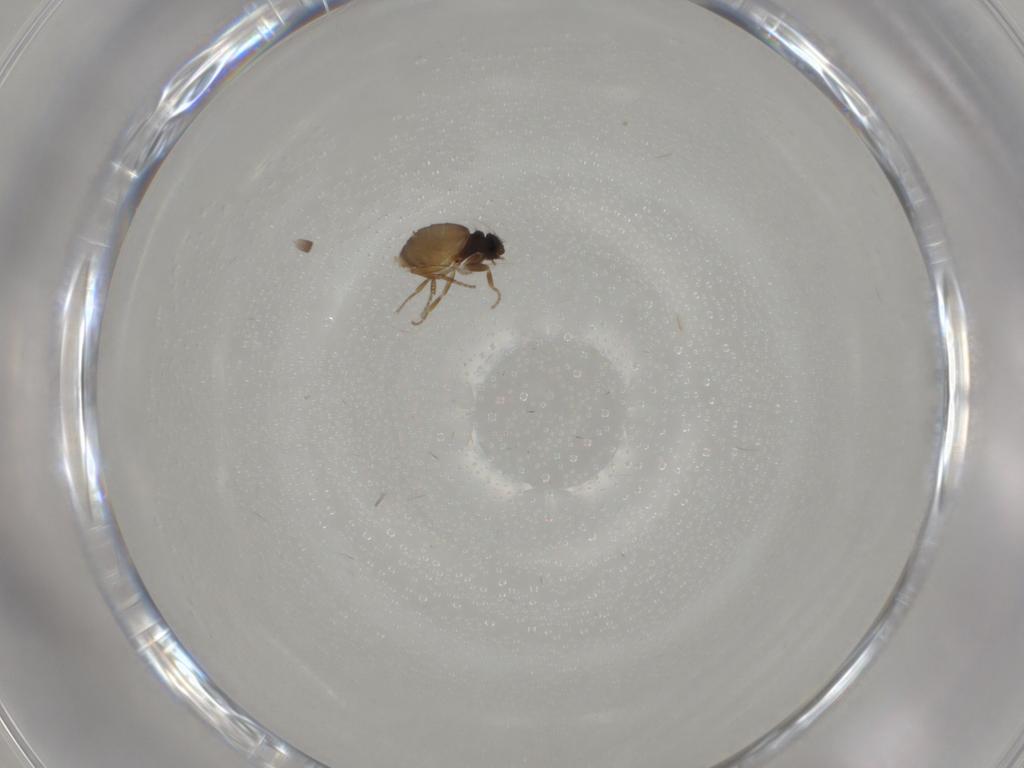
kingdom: Animalia
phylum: Arthropoda
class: Insecta
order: Diptera
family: Phoridae
